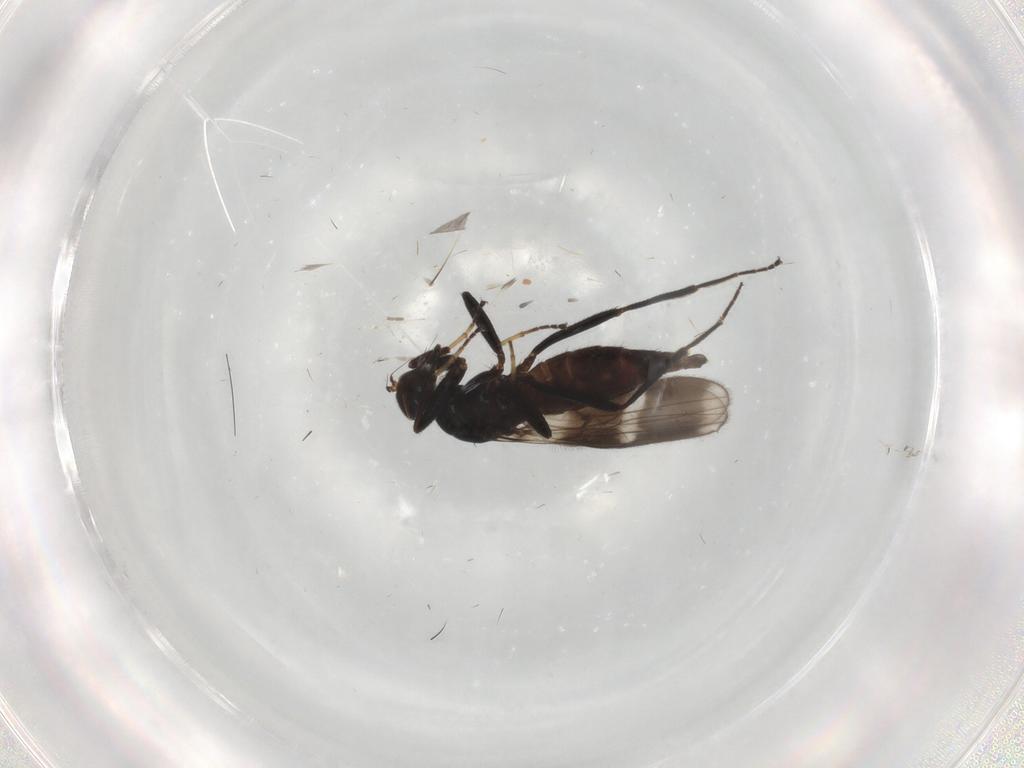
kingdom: Animalia
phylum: Arthropoda
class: Insecta
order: Diptera
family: Hybotidae
